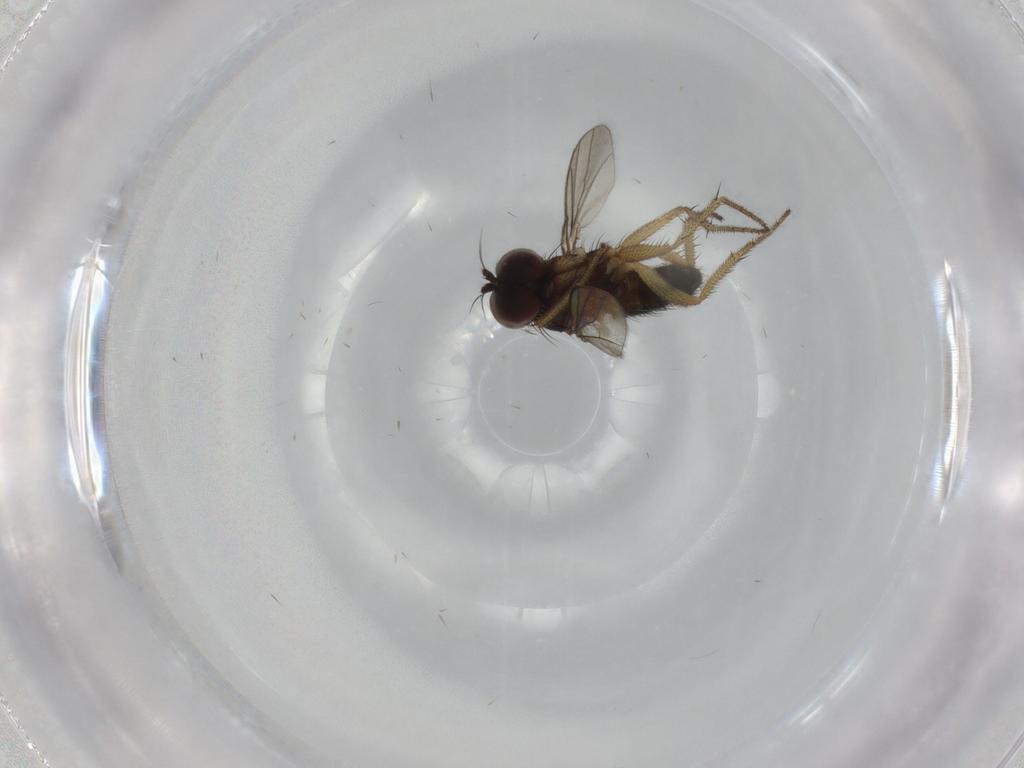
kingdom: Animalia
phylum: Arthropoda
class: Insecta
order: Diptera
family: Dolichopodidae
